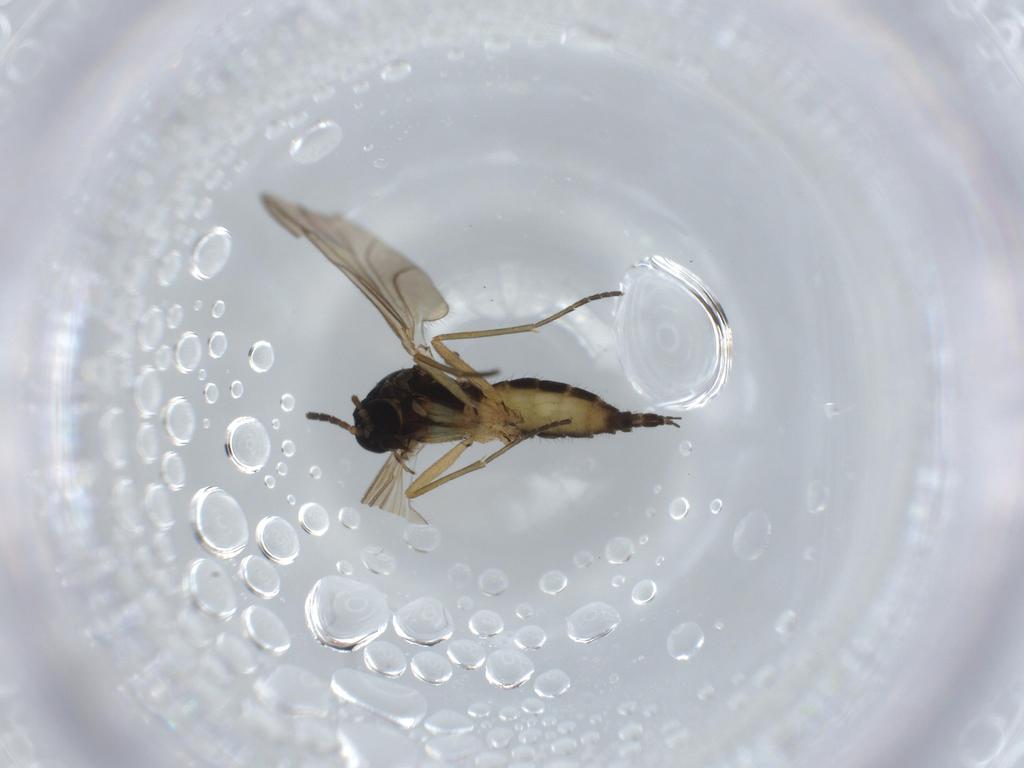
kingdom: Animalia
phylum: Arthropoda
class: Insecta
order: Diptera
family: Sciaridae
